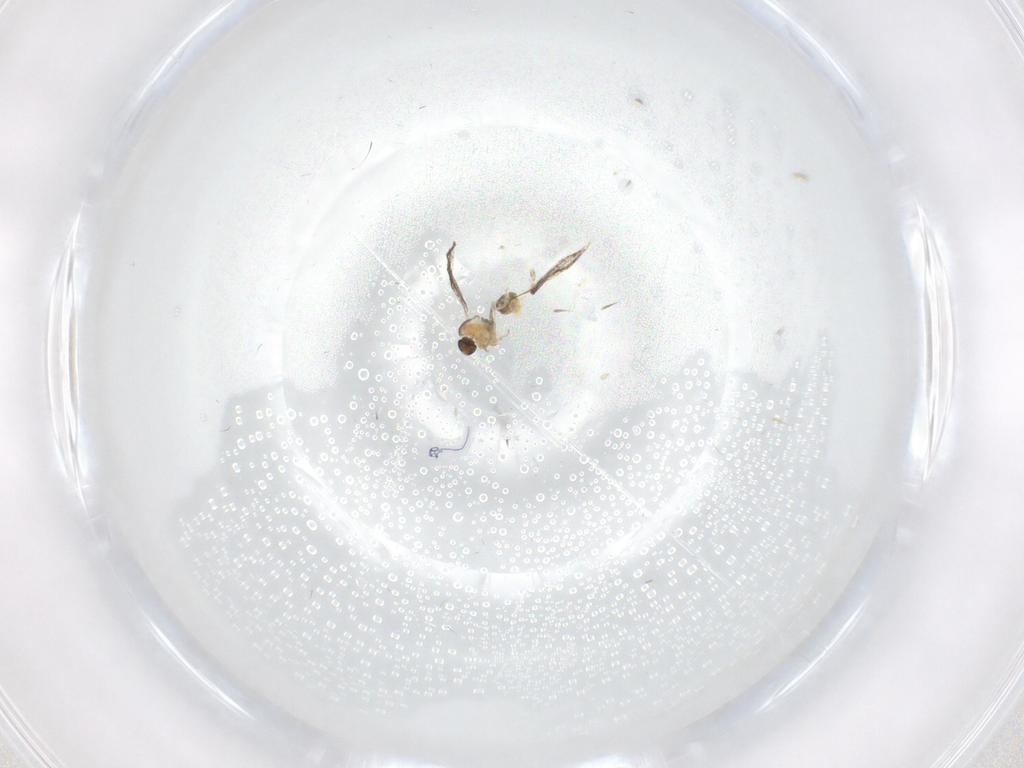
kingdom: Animalia
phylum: Arthropoda
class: Insecta
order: Diptera
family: Cecidomyiidae
